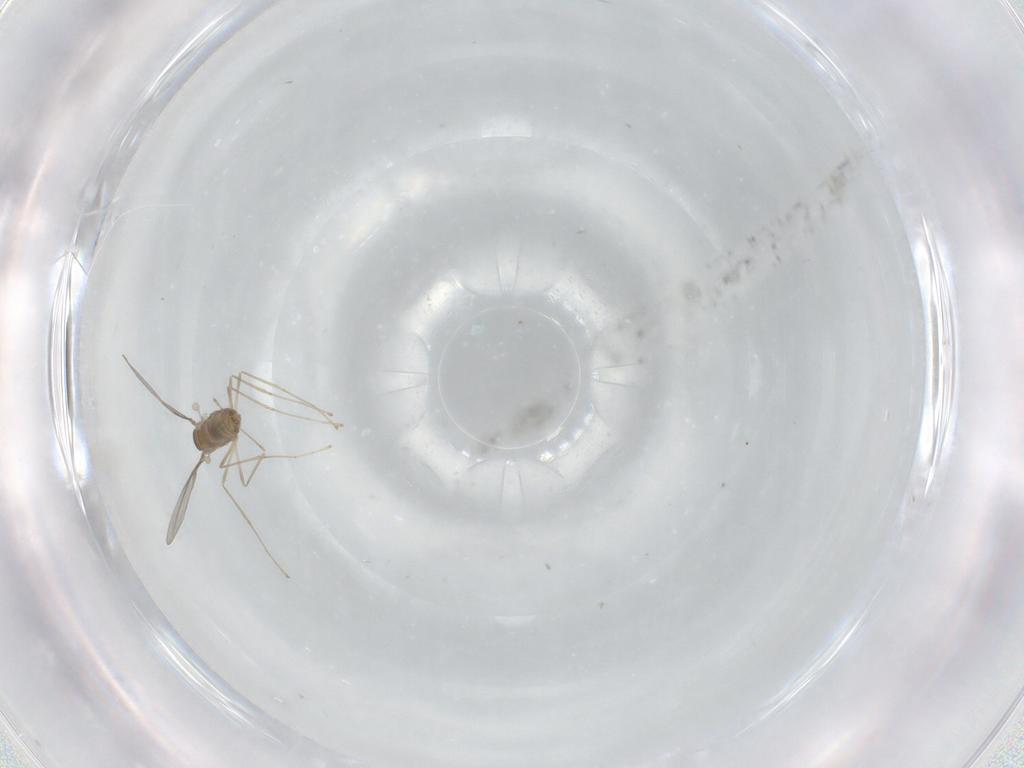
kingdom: Animalia
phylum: Arthropoda
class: Insecta
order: Diptera
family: Cecidomyiidae
